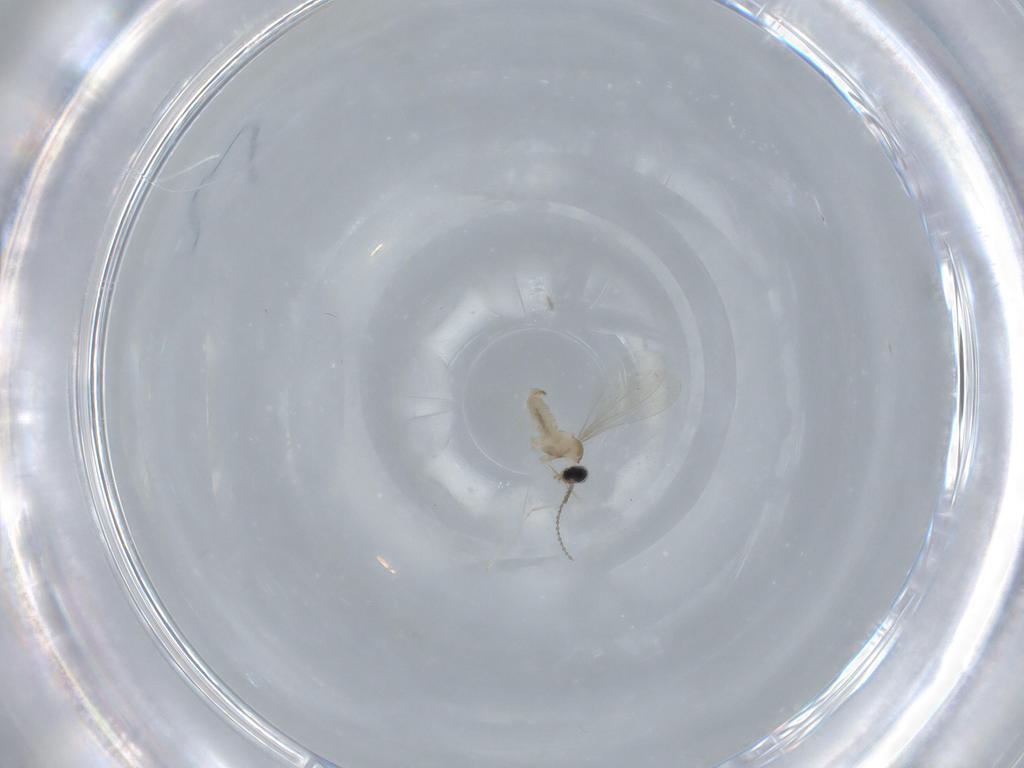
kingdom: Animalia
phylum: Arthropoda
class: Insecta
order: Diptera
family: Cecidomyiidae
